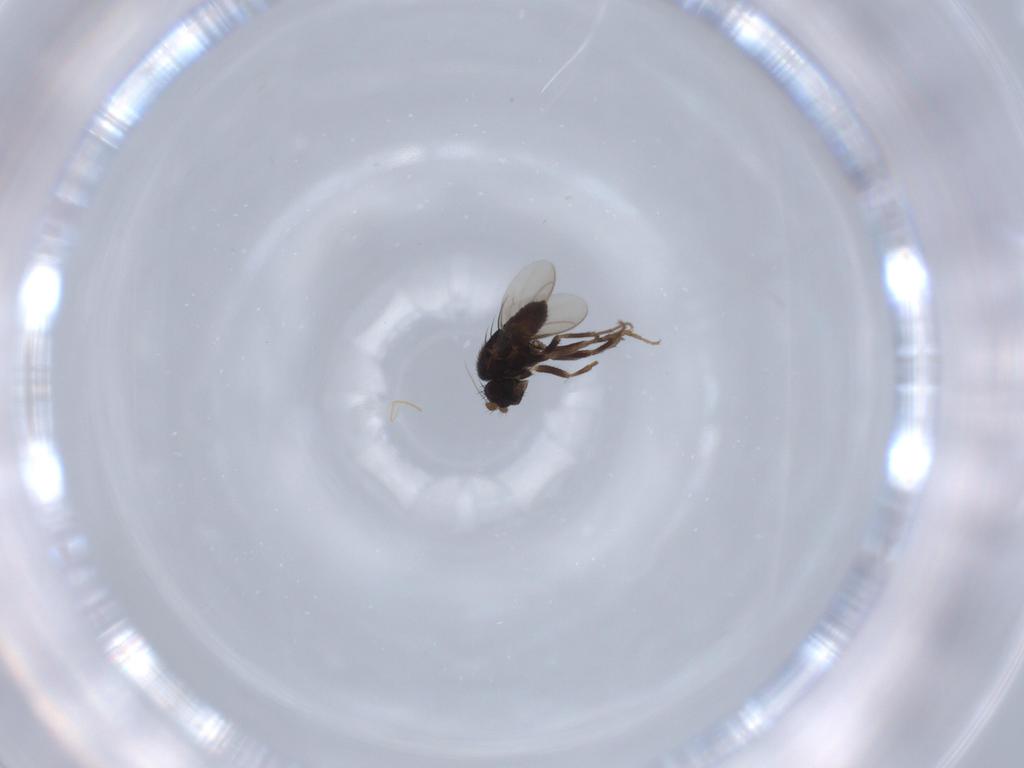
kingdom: Animalia
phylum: Arthropoda
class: Insecta
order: Diptera
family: Sphaeroceridae
